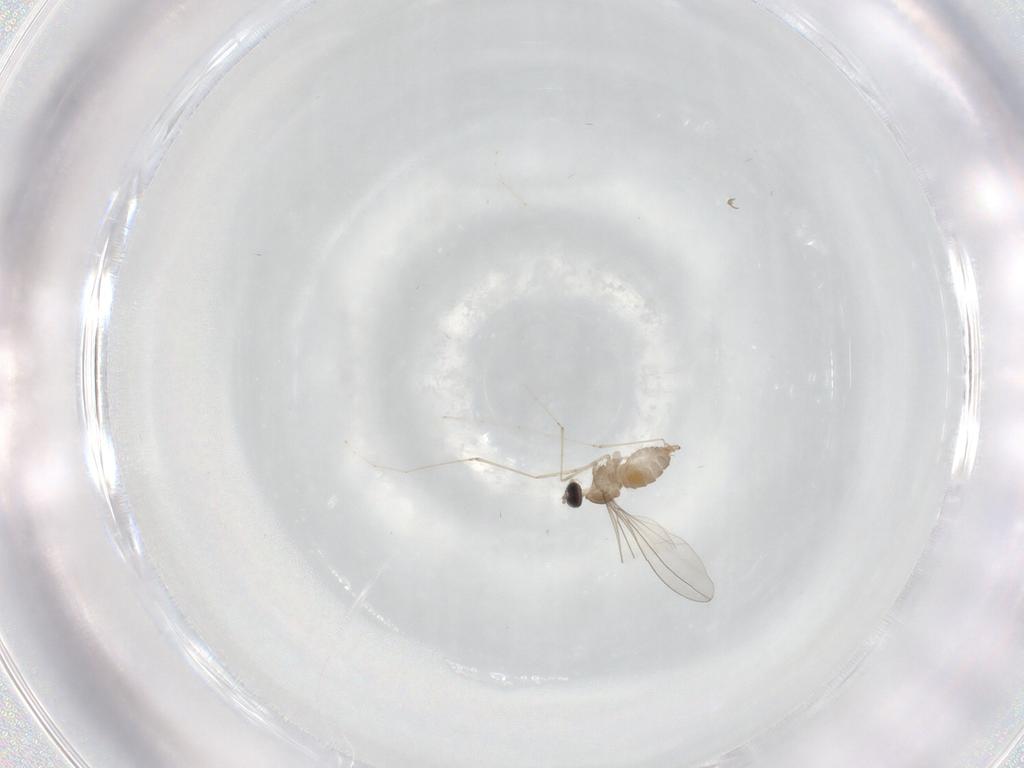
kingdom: Animalia
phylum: Arthropoda
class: Insecta
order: Diptera
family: Cecidomyiidae
